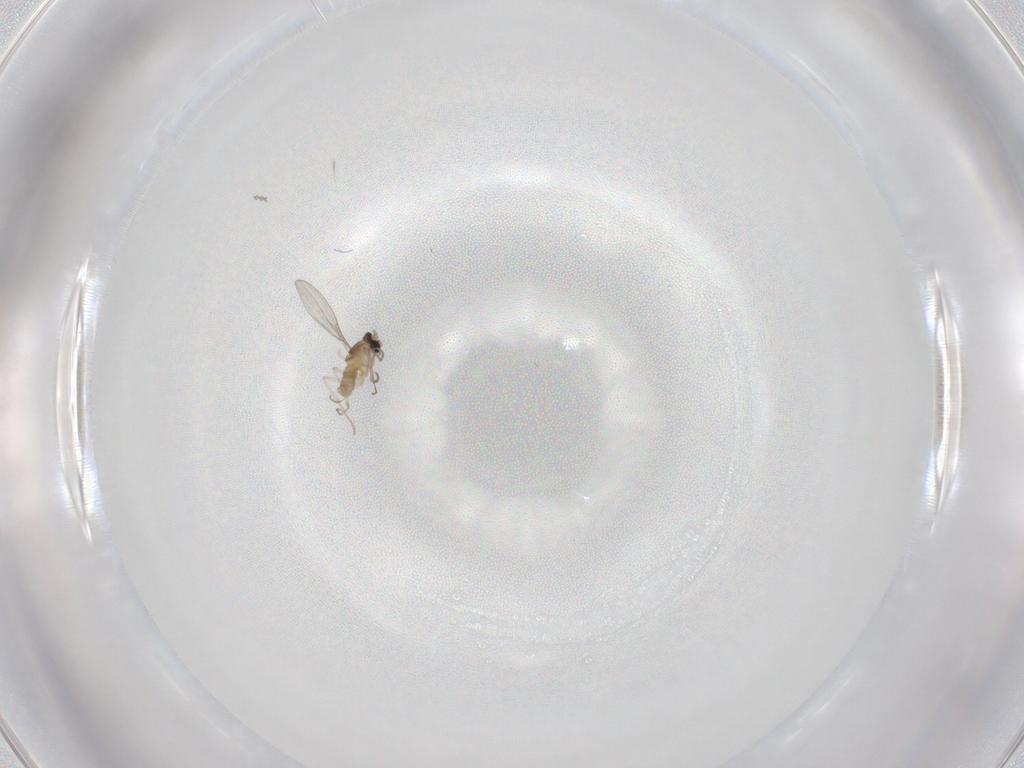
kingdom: Animalia
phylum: Arthropoda
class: Insecta
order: Diptera
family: Cecidomyiidae
